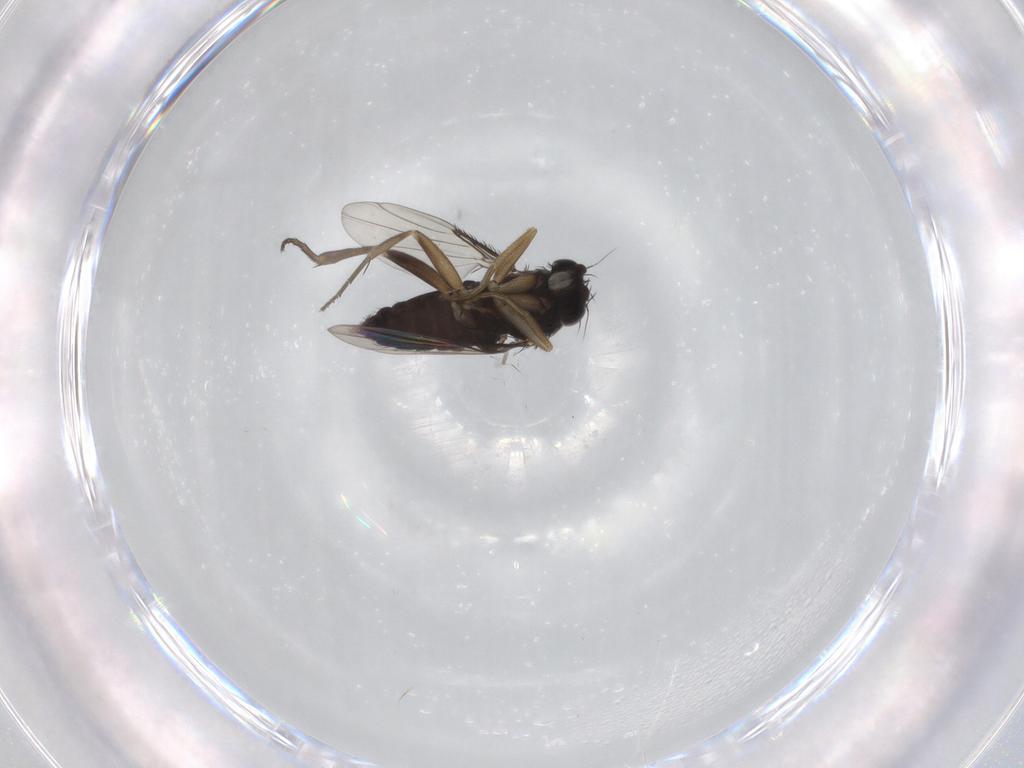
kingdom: Animalia
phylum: Arthropoda
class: Insecta
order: Diptera
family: Phoridae
